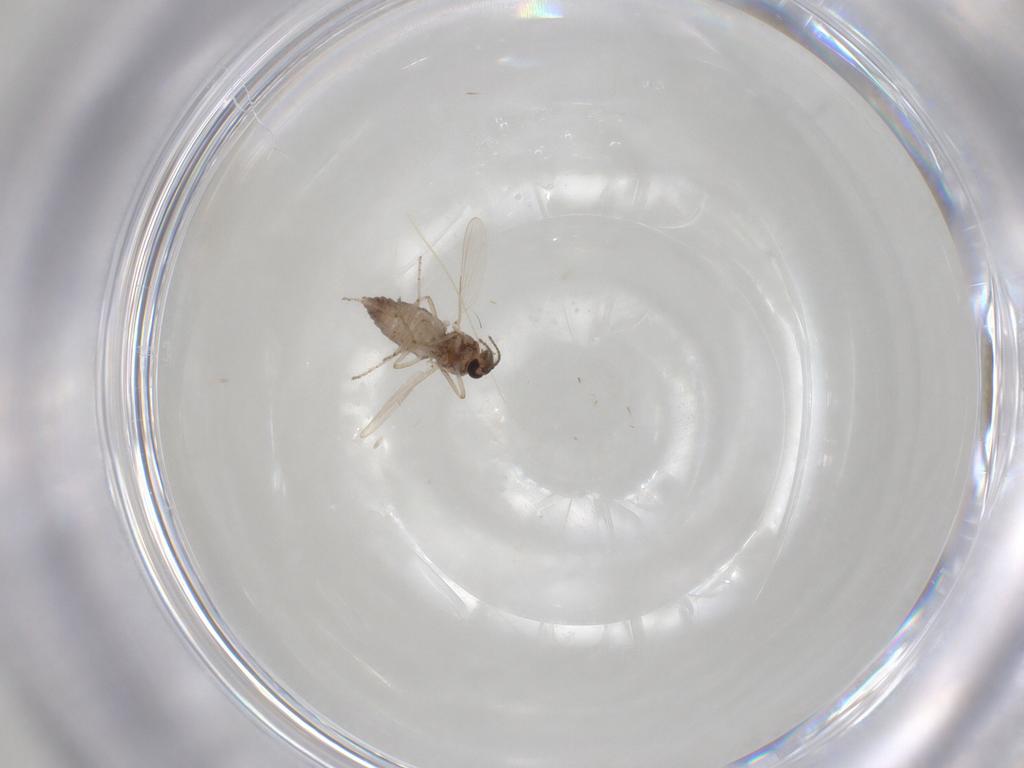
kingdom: Animalia
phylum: Arthropoda
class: Insecta
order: Diptera
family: Ceratopogonidae
